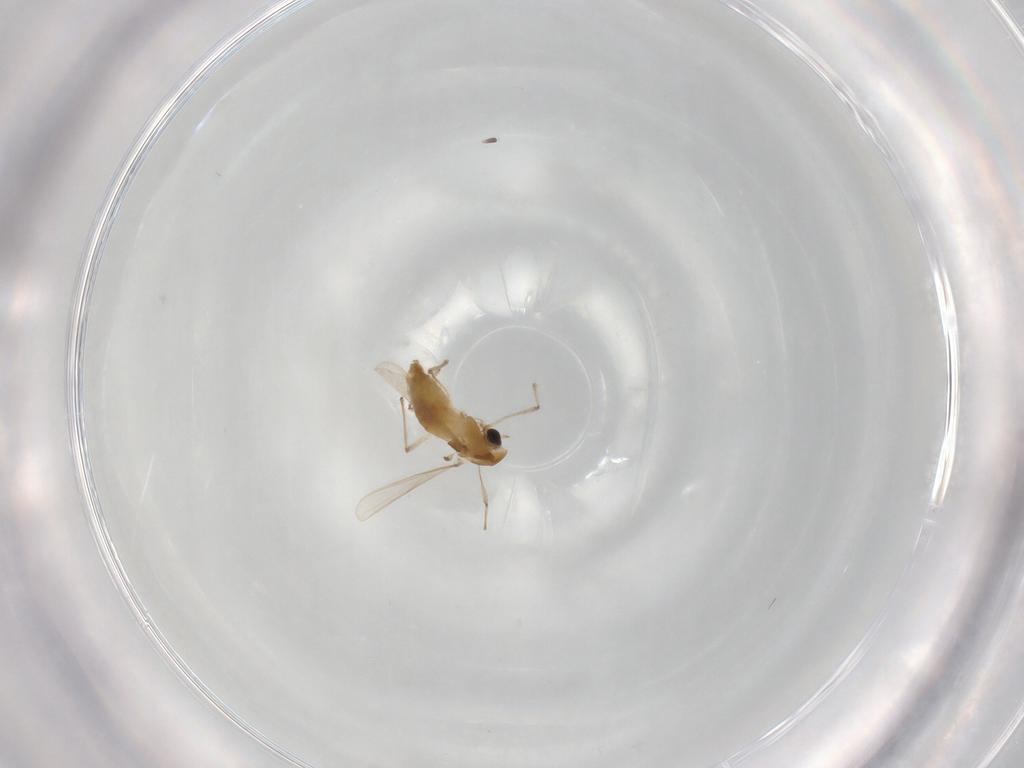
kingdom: Animalia
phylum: Arthropoda
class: Insecta
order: Diptera
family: Chironomidae
